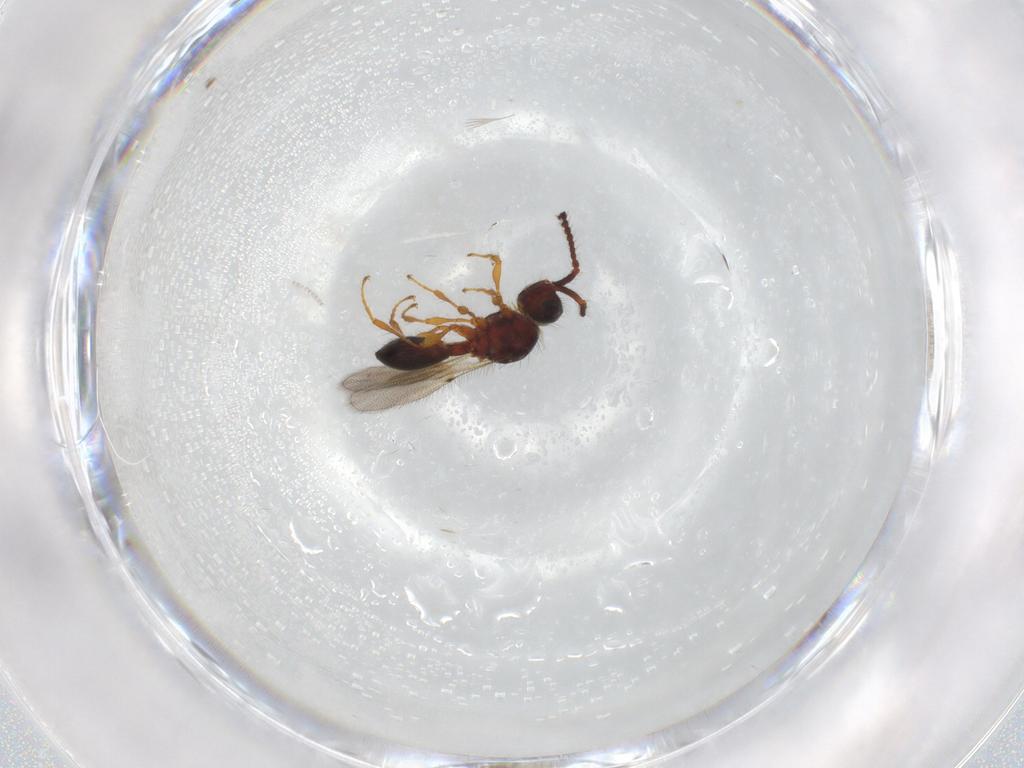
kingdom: Animalia
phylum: Arthropoda
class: Insecta
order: Hymenoptera
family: Diapriidae
